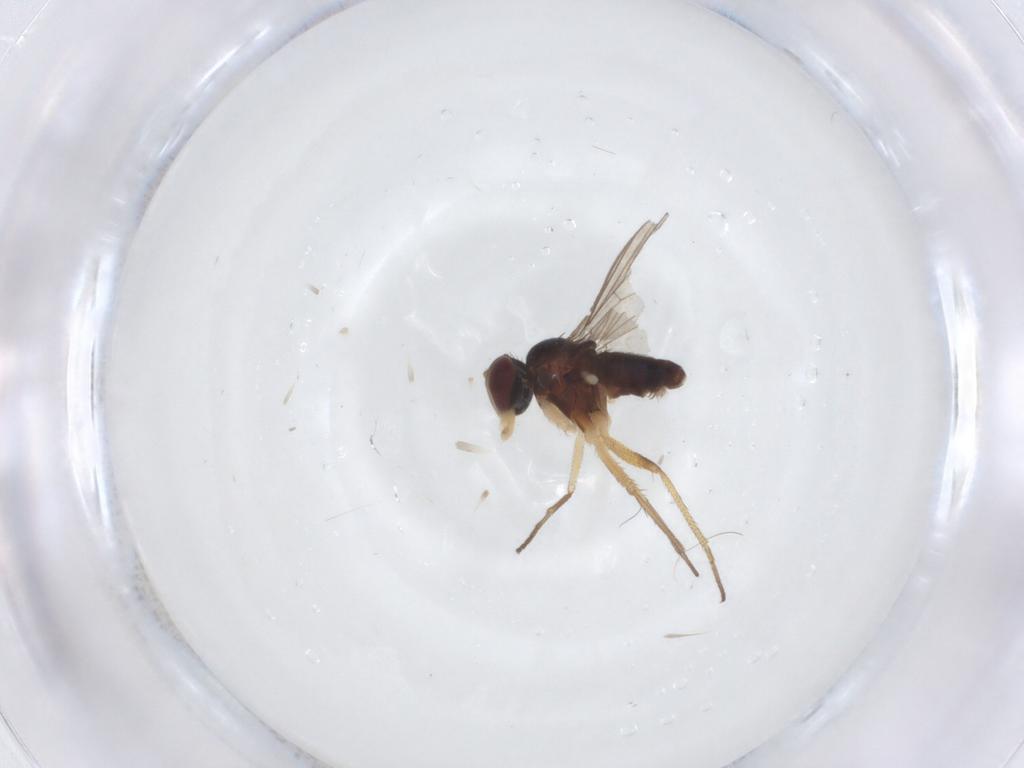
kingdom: Animalia
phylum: Arthropoda
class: Insecta
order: Diptera
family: Dolichopodidae
